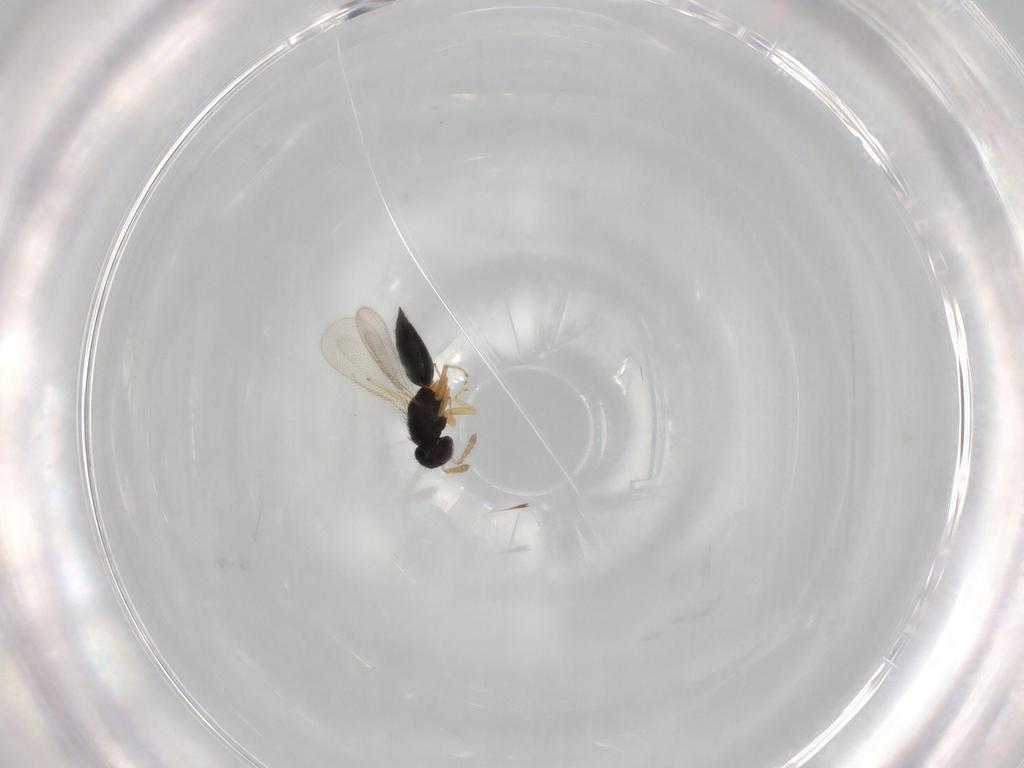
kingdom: Animalia
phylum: Arthropoda
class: Insecta
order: Hymenoptera
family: Eulophidae
